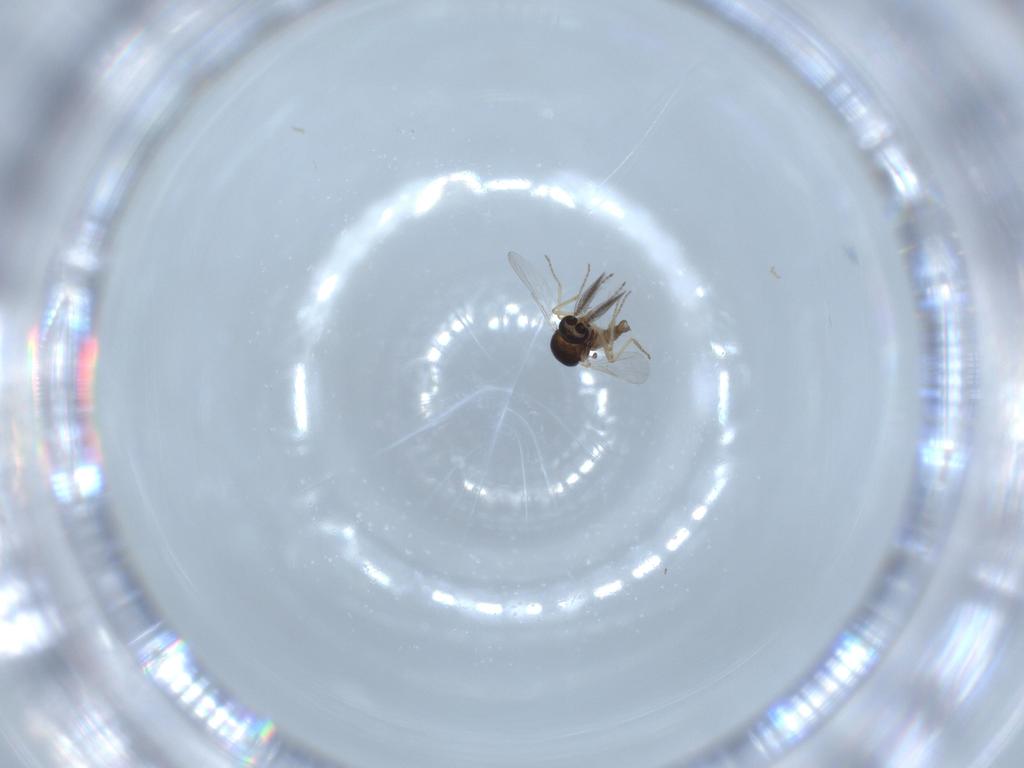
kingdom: Animalia
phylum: Arthropoda
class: Insecta
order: Diptera
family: Ceratopogonidae
